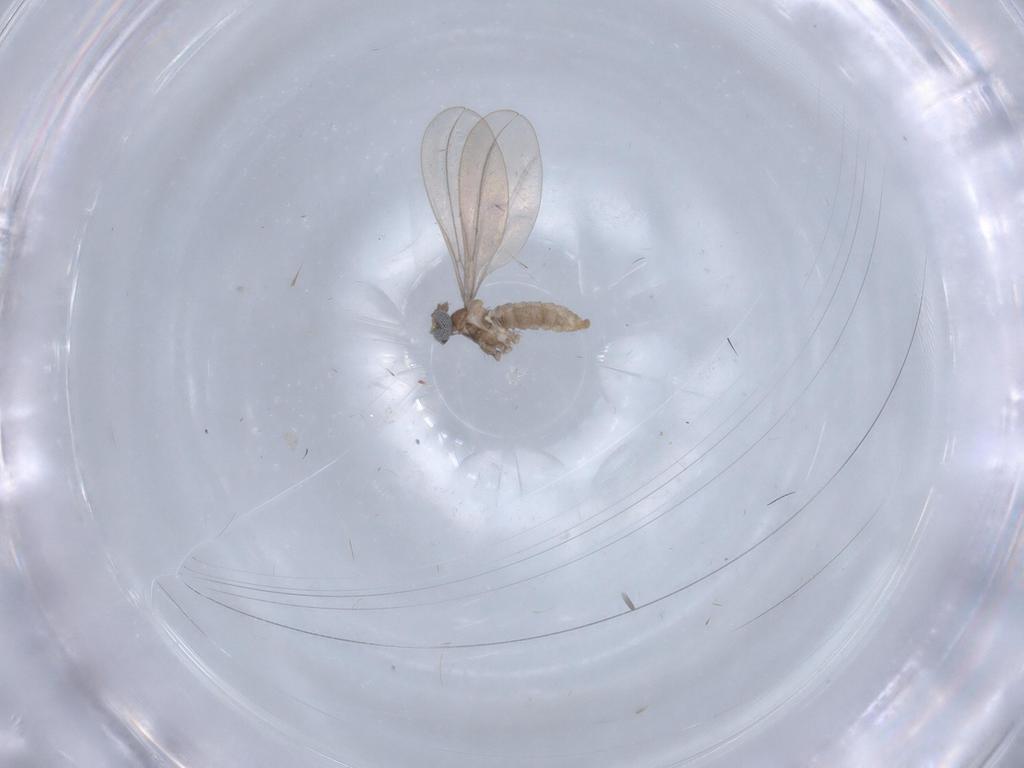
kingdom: Animalia
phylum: Arthropoda
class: Insecta
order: Diptera
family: Cecidomyiidae
